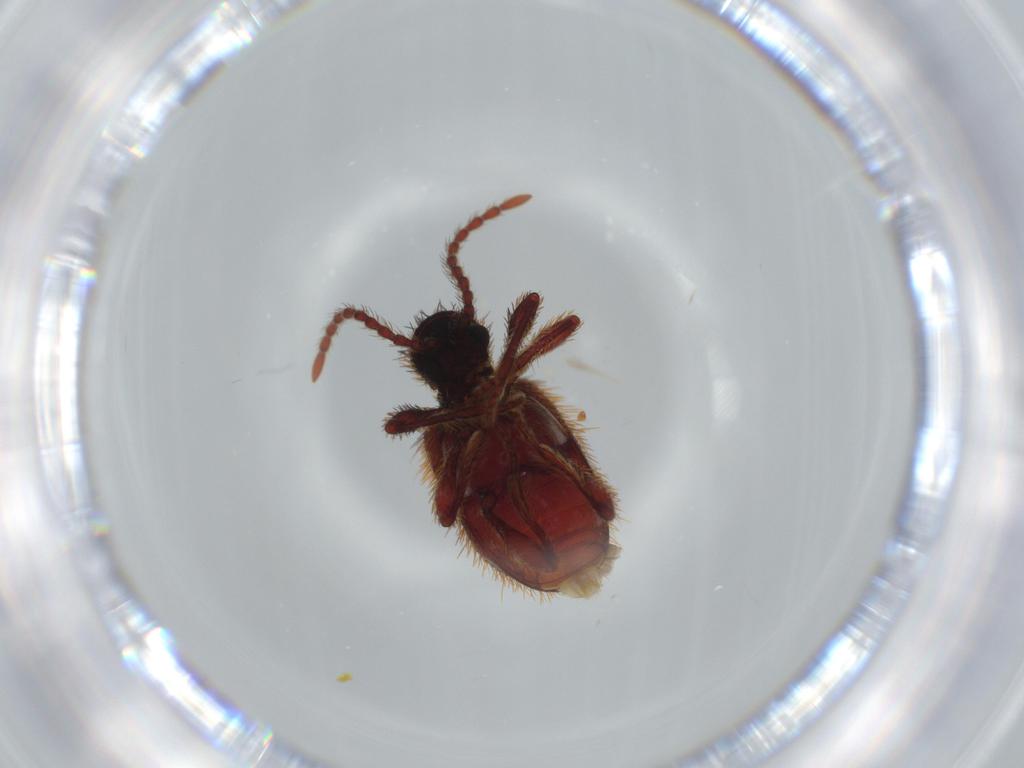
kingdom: Animalia
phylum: Arthropoda
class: Insecta
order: Coleoptera
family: Ptinidae
